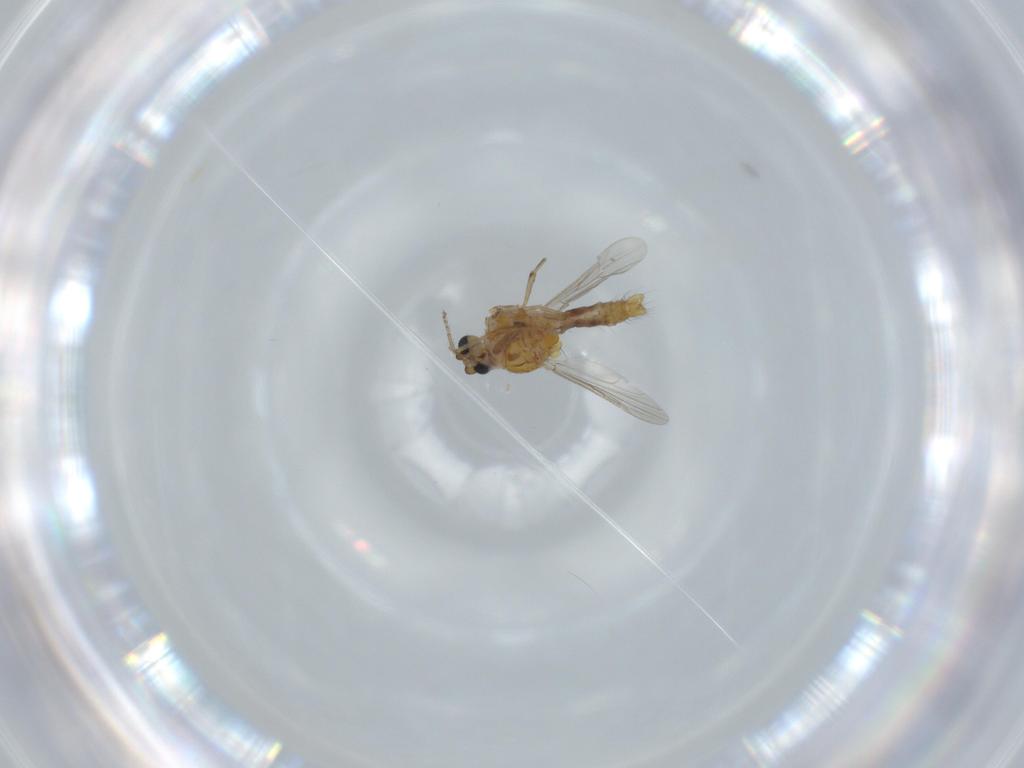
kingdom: Animalia
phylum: Arthropoda
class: Insecta
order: Diptera
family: Ceratopogonidae
